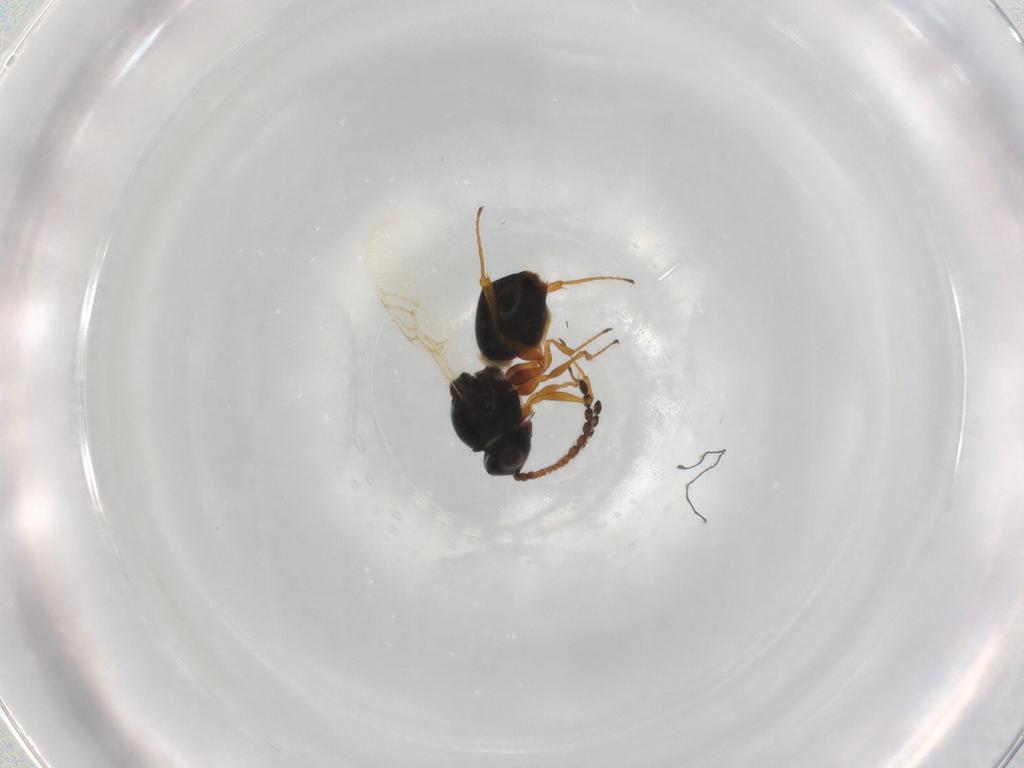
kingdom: Animalia
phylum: Arthropoda
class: Insecta
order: Hymenoptera
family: Figitidae
